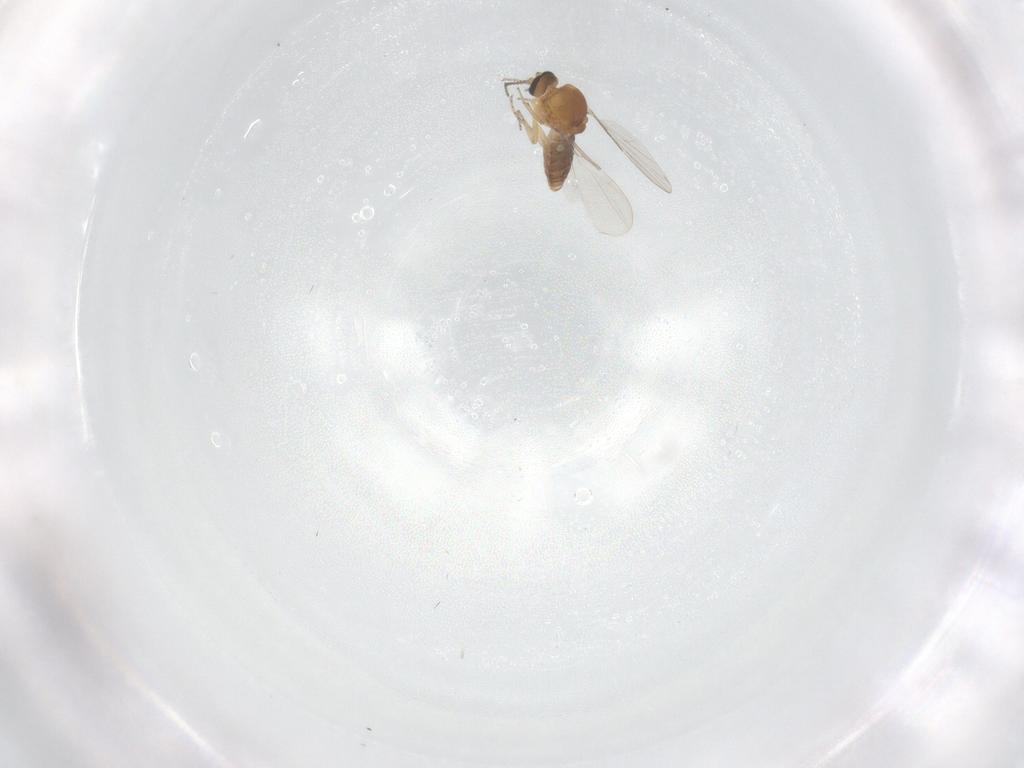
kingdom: Animalia
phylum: Arthropoda
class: Insecta
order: Diptera
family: Ceratopogonidae
